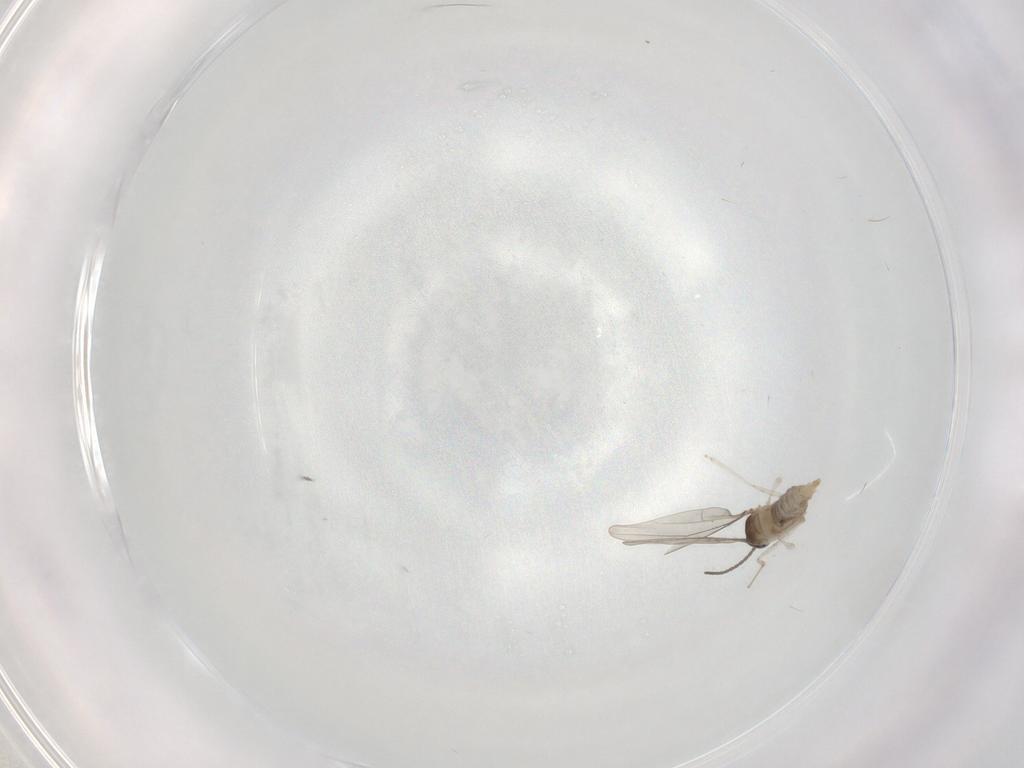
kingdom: Animalia
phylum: Arthropoda
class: Insecta
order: Diptera
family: Cecidomyiidae
